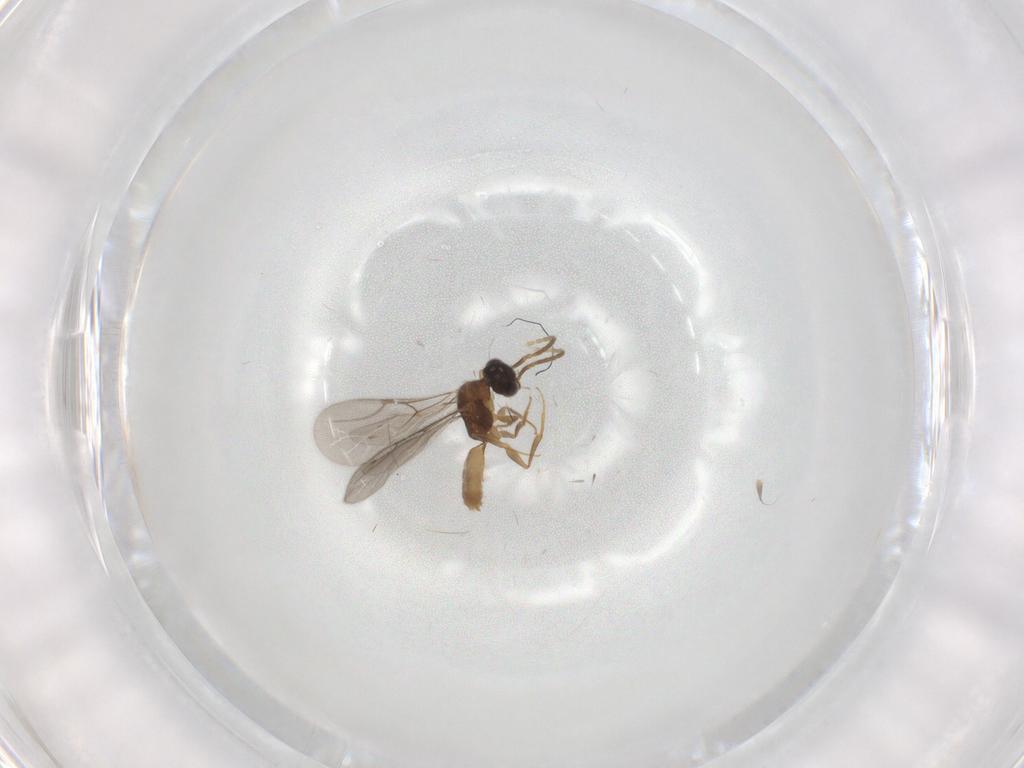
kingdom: Animalia
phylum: Arthropoda
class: Insecta
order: Hymenoptera
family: Bethylidae
